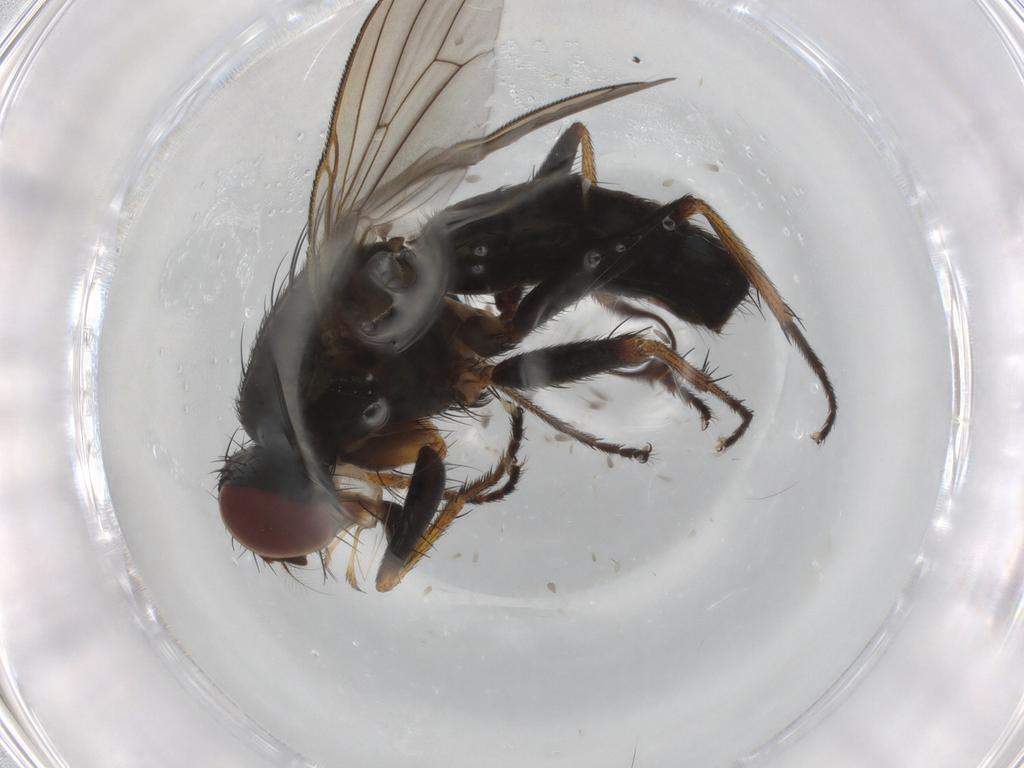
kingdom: Animalia
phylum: Arthropoda
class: Insecta
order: Diptera
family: Muscidae
